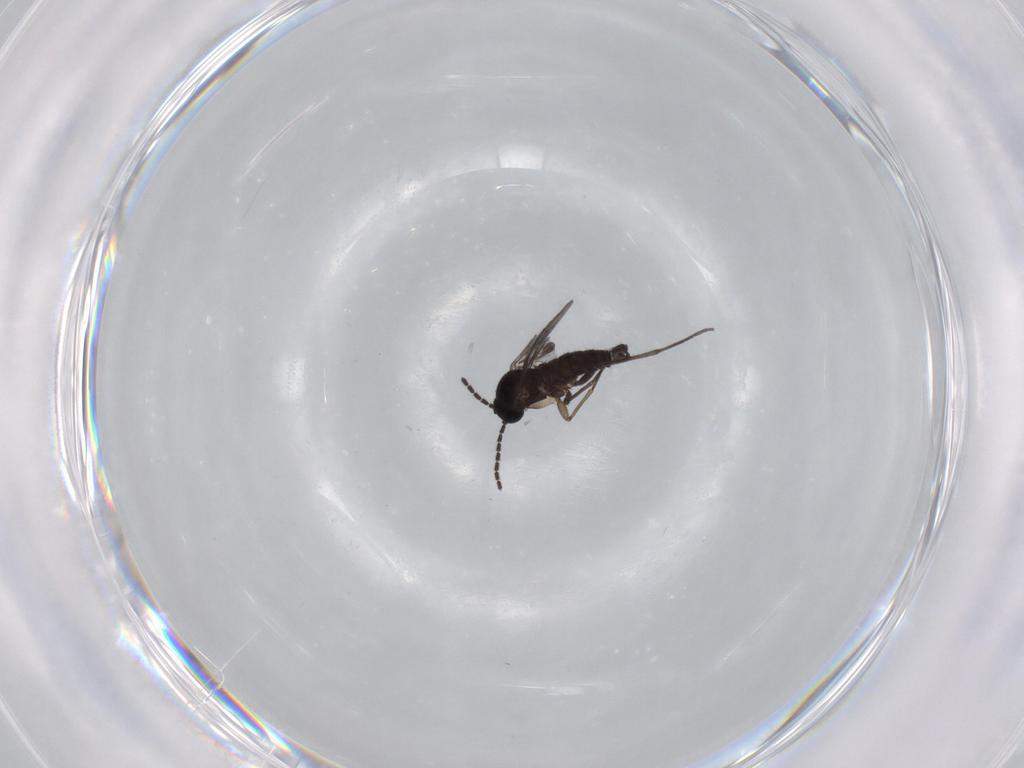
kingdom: Animalia
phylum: Arthropoda
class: Insecta
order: Diptera
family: Sciaridae
